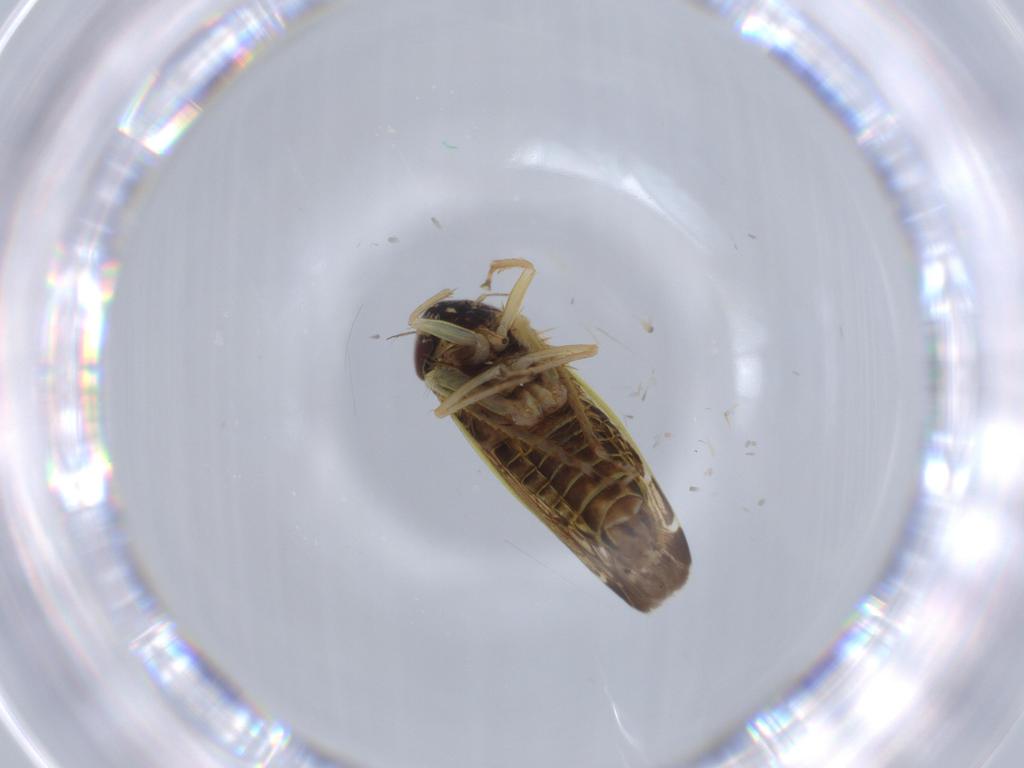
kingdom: Animalia
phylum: Arthropoda
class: Insecta
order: Hemiptera
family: Cicadellidae
